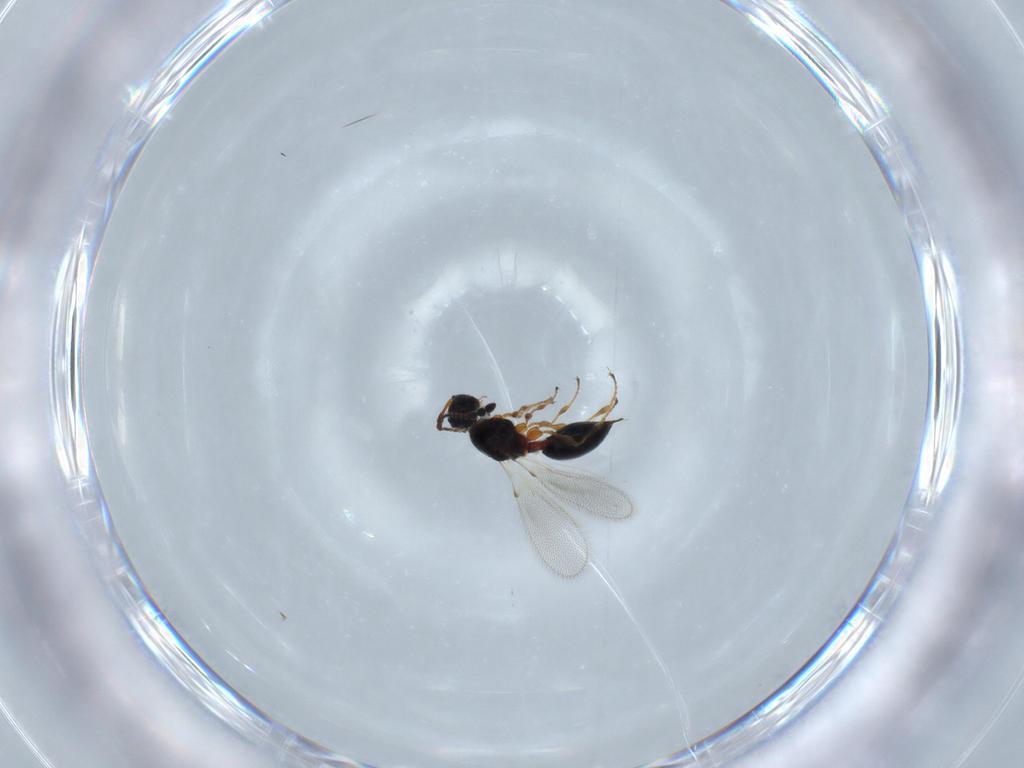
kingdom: Animalia
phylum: Arthropoda
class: Insecta
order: Hymenoptera
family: Diapriidae
